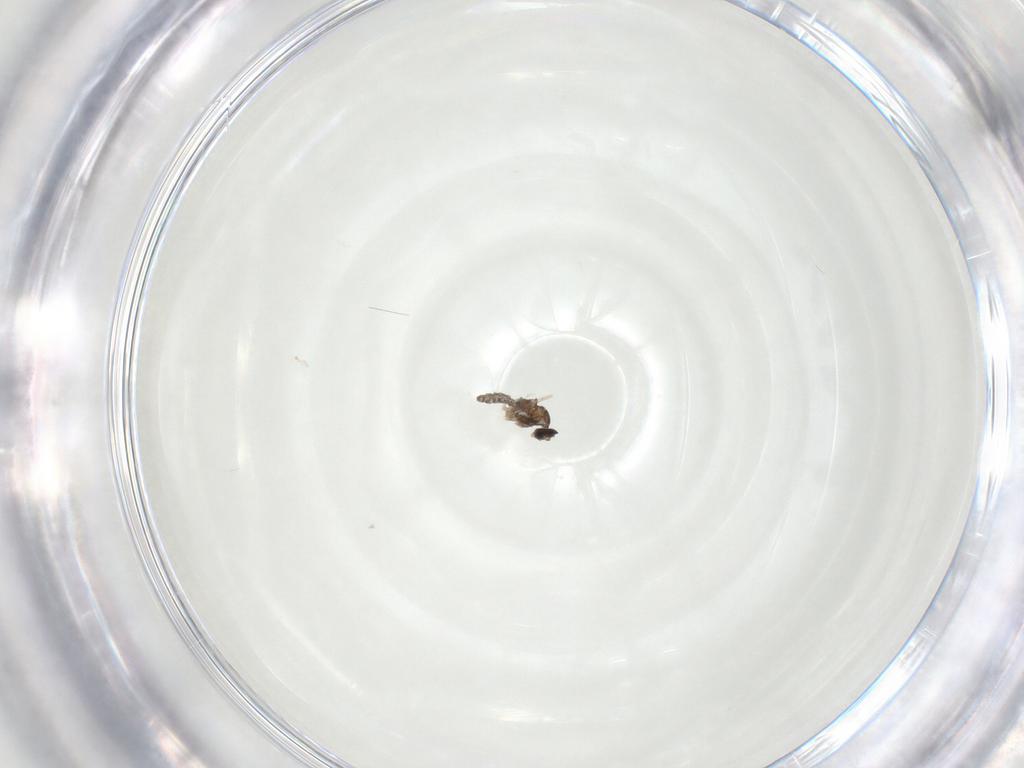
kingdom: Animalia
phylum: Arthropoda
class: Insecta
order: Diptera
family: Cecidomyiidae
